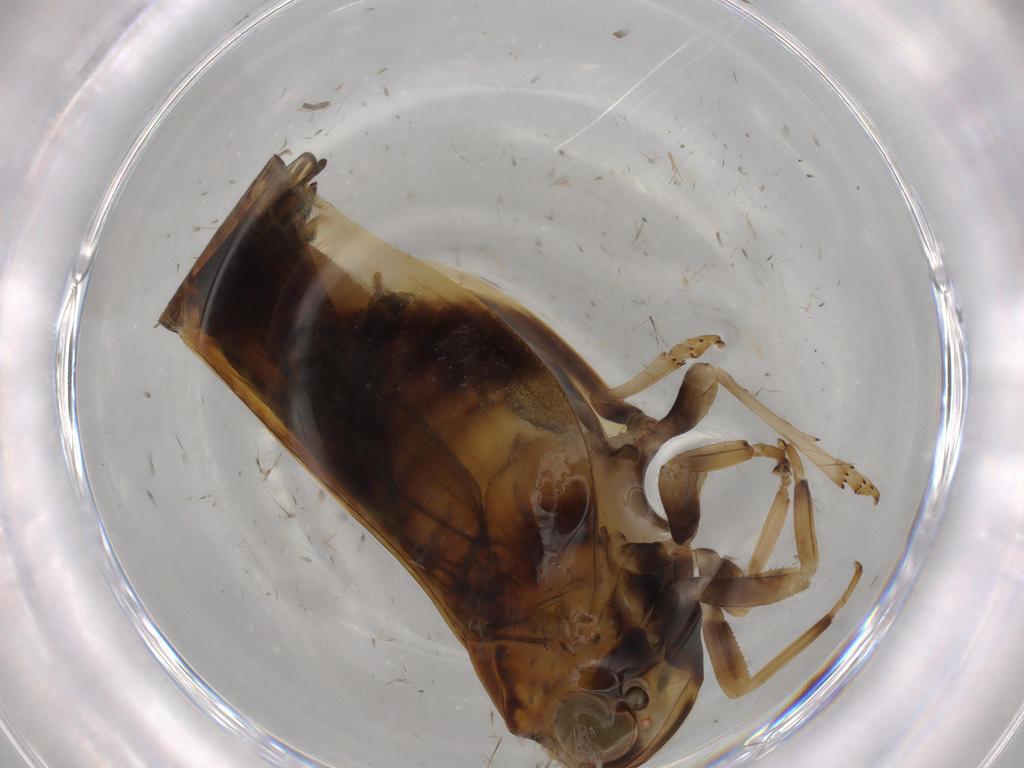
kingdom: Animalia
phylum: Arthropoda
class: Insecta
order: Hemiptera
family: Nogodinidae
